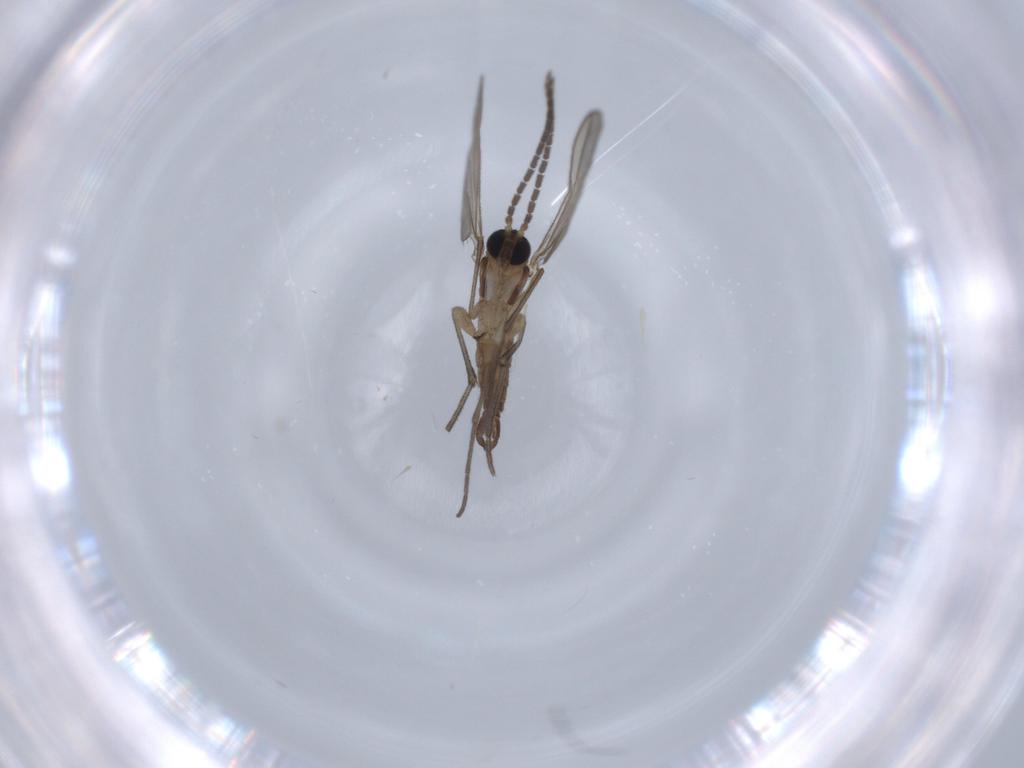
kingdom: Animalia
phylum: Arthropoda
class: Insecta
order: Diptera
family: Sciaridae
